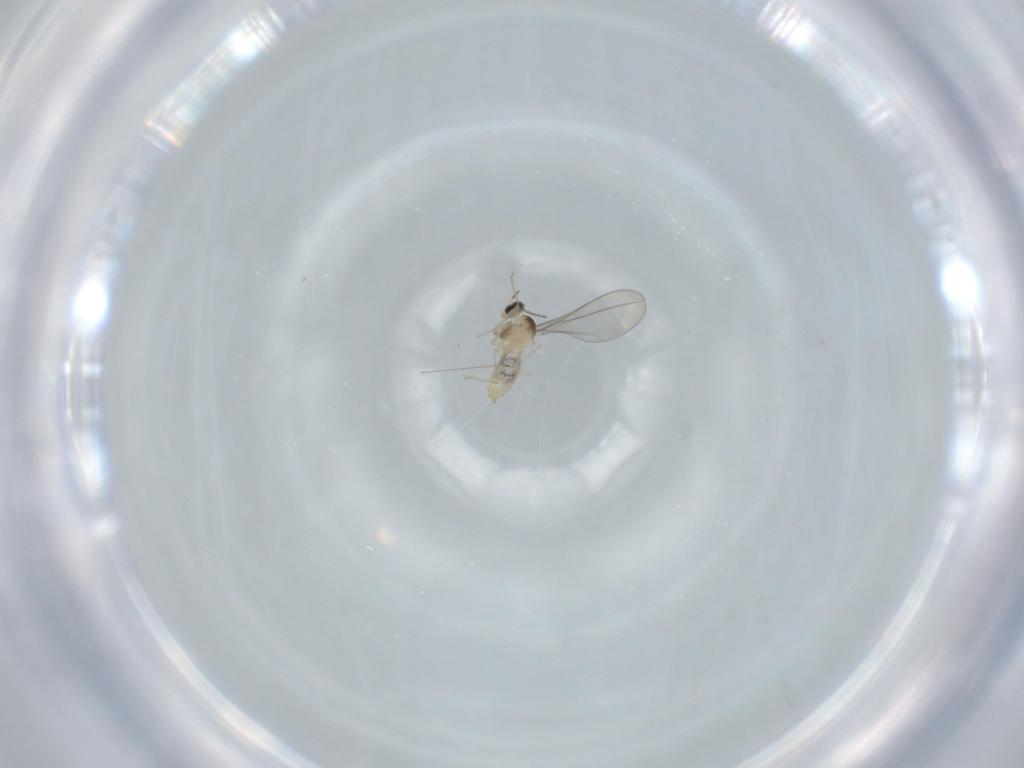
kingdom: Animalia
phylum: Arthropoda
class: Insecta
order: Diptera
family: Cecidomyiidae
